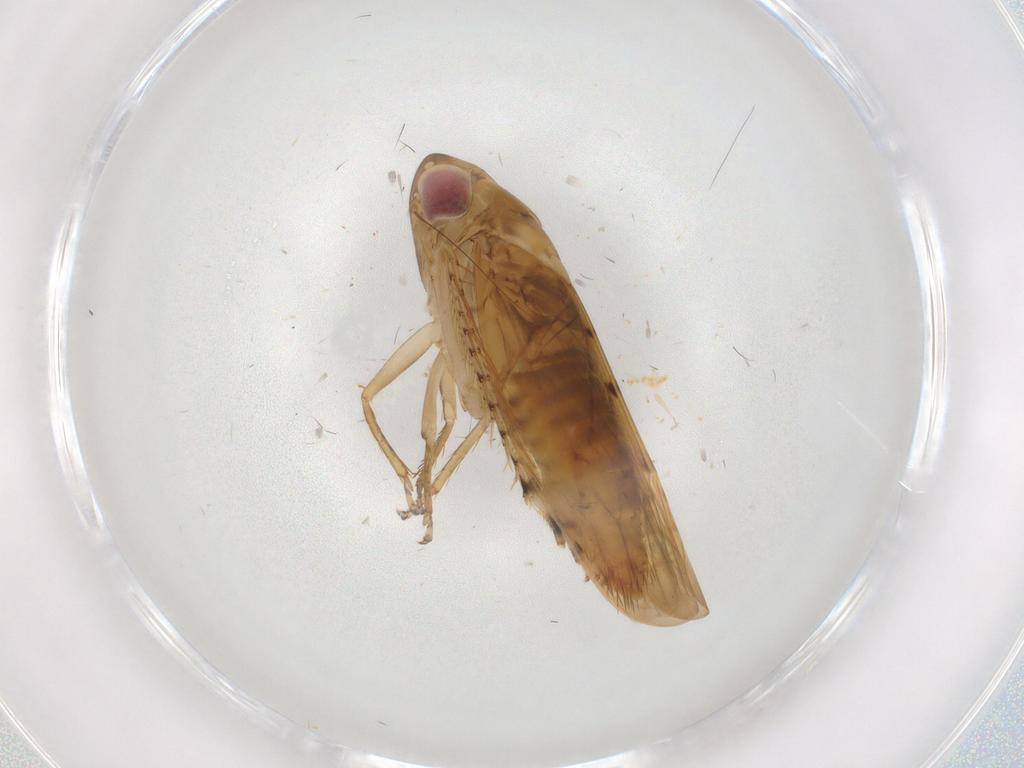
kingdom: Animalia
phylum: Arthropoda
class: Insecta
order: Hemiptera
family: Cicadellidae
